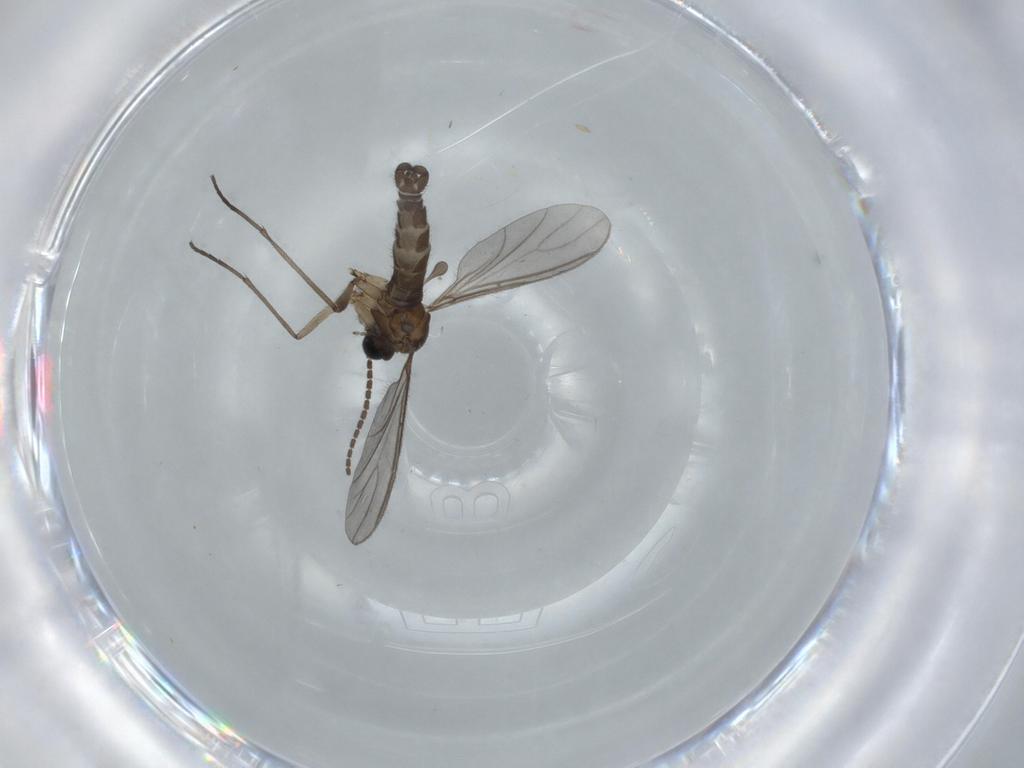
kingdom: Animalia
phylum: Arthropoda
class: Insecta
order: Diptera
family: Sciaridae
